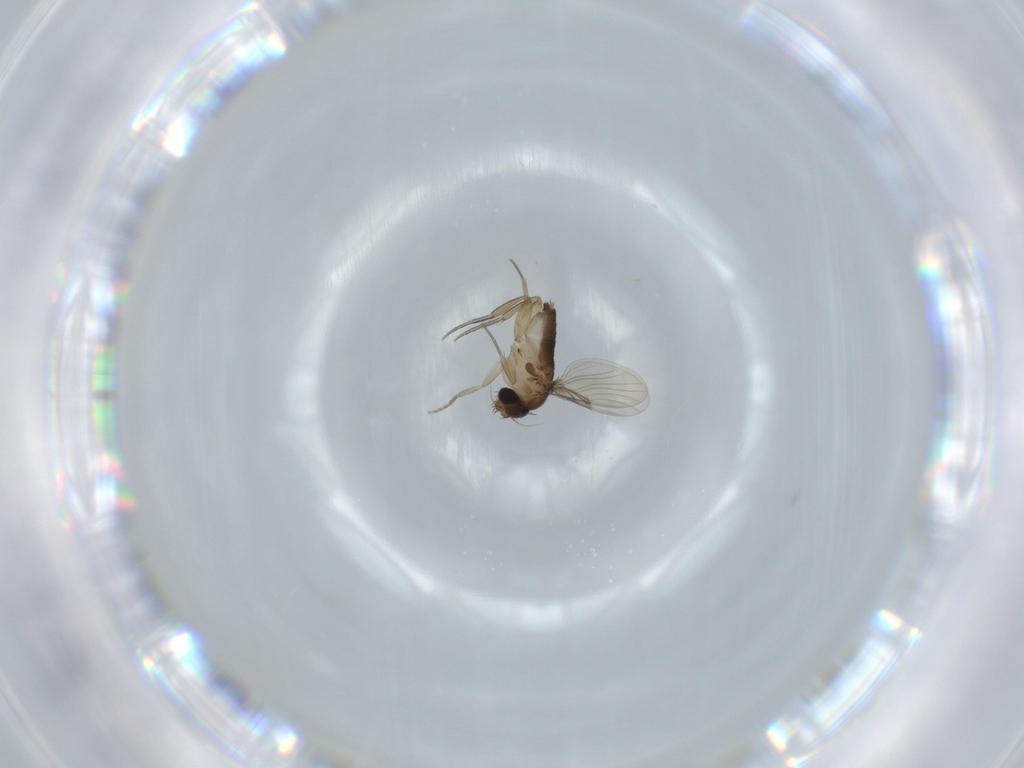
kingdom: Animalia
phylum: Arthropoda
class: Insecta
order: Diptera
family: Phoridae
